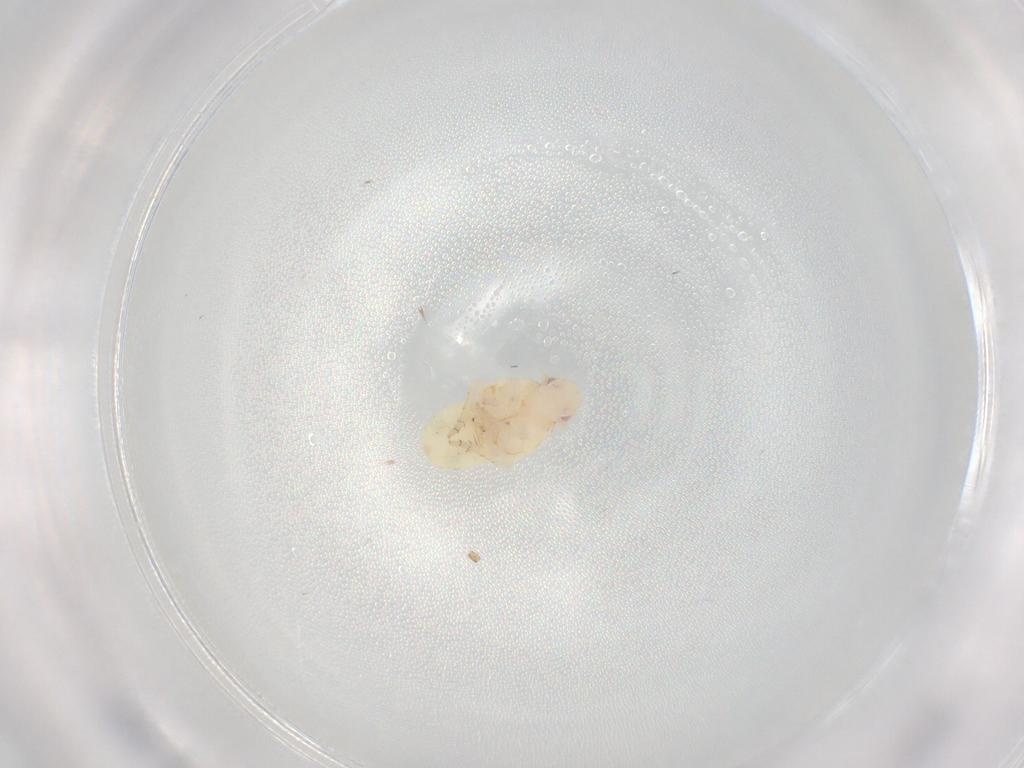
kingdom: Animalia
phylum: Arthropoda
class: Insecta
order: Hemiptera
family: Flatidae
